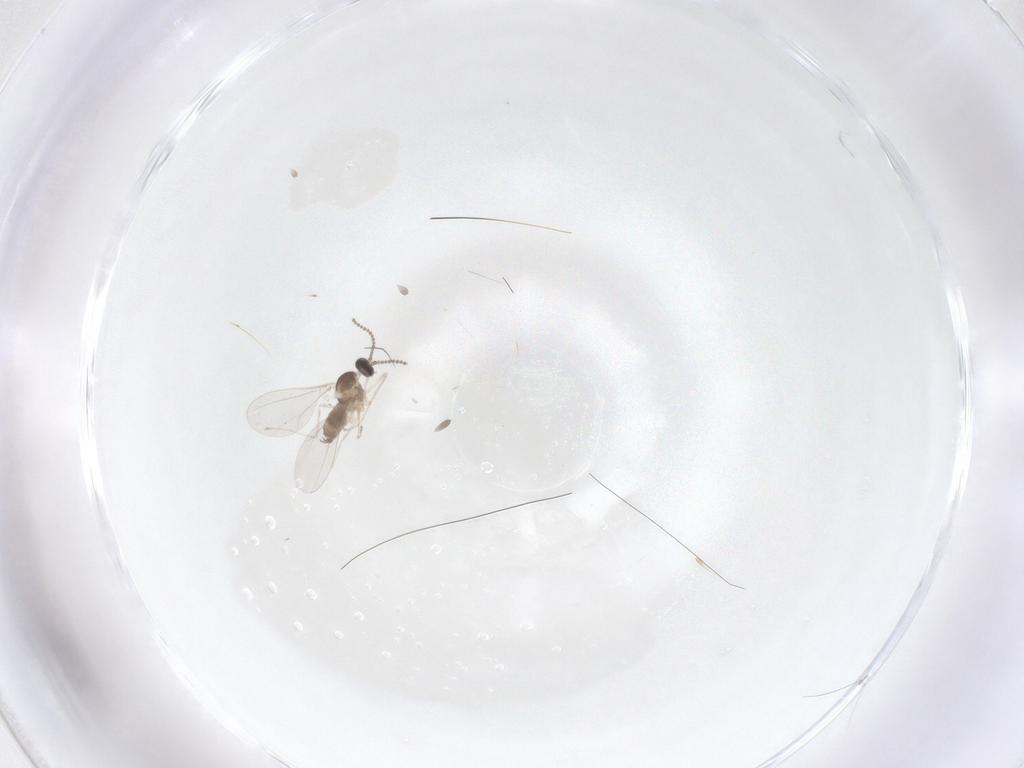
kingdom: Animalia
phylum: Arthropoda
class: Insecta
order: Diptera
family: Cecidomyiidae
